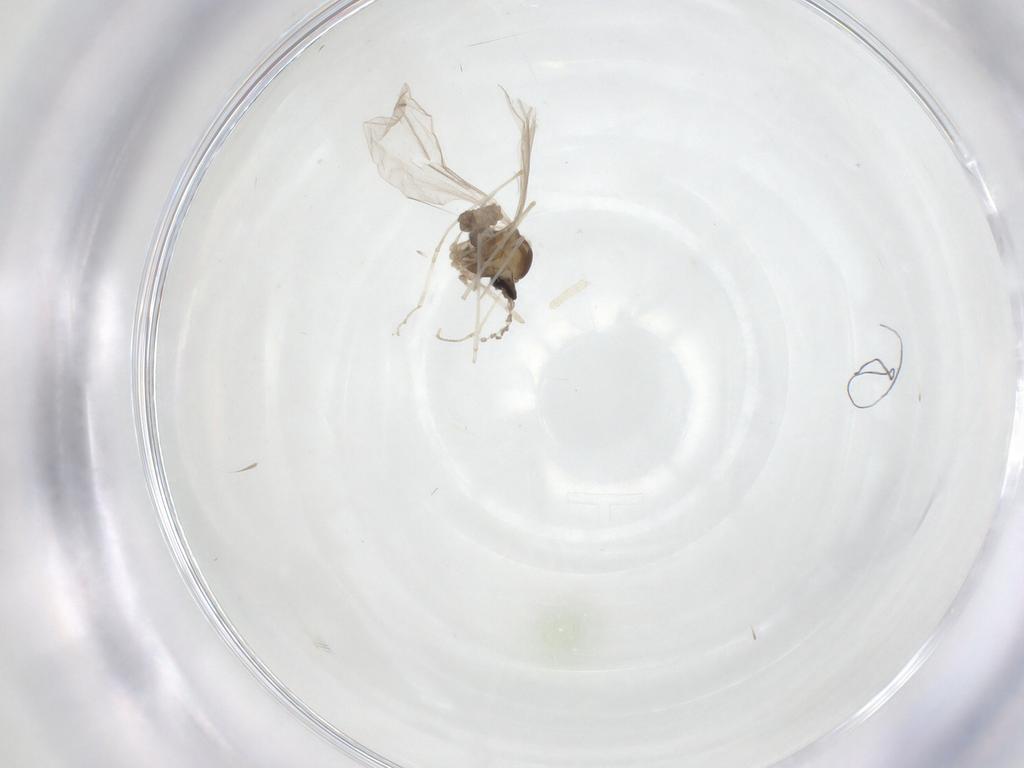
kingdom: Animalia
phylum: Arthropoda
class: Insecta
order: Diptera
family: Cecidomyiidae
